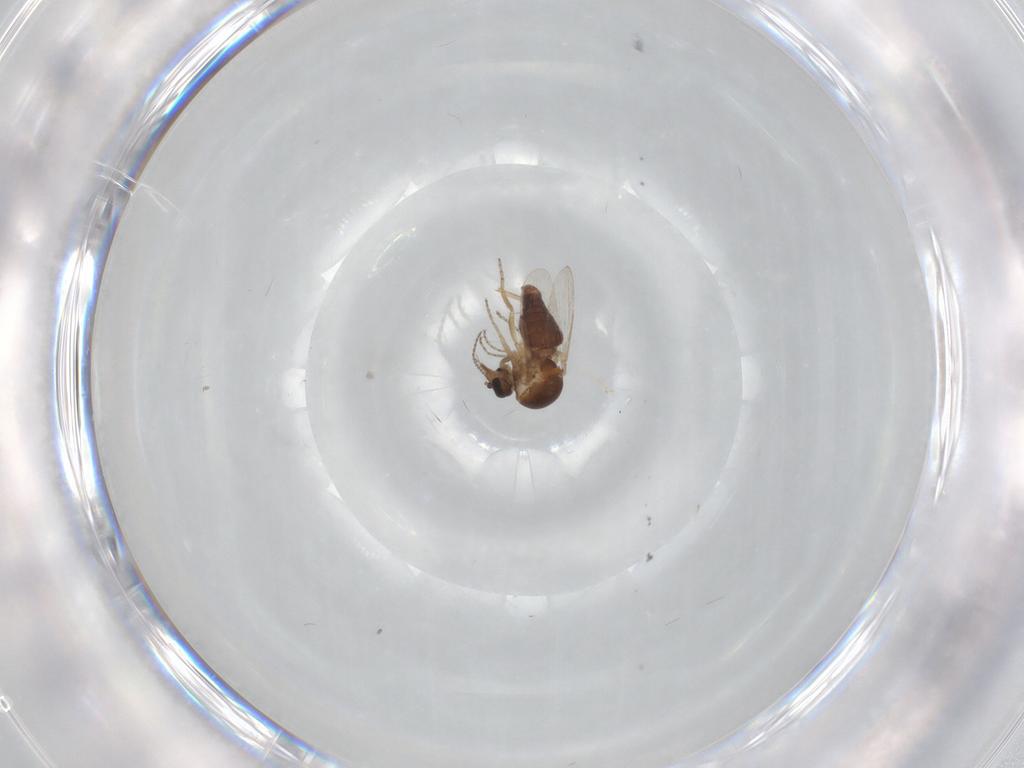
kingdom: Animalia
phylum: Arthropoda
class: Insecta
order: Diptera
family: Ceratopogonidae
